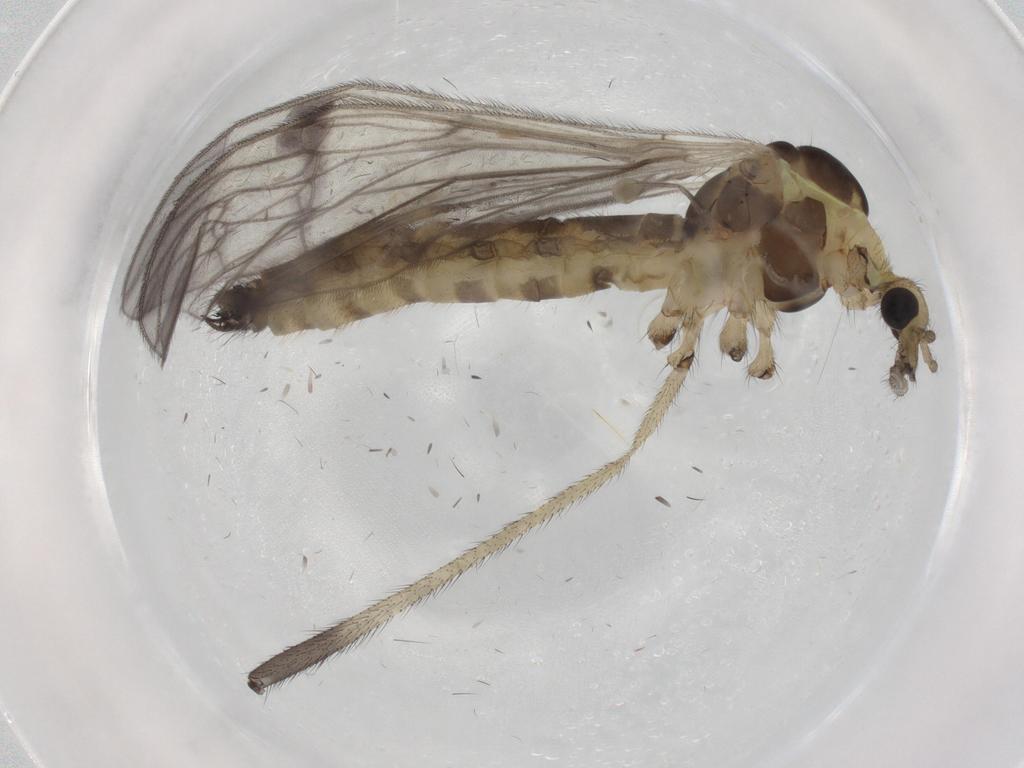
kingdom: Animalia
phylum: Arthropoda
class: Insecta
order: Diptera
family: Limoniidae
